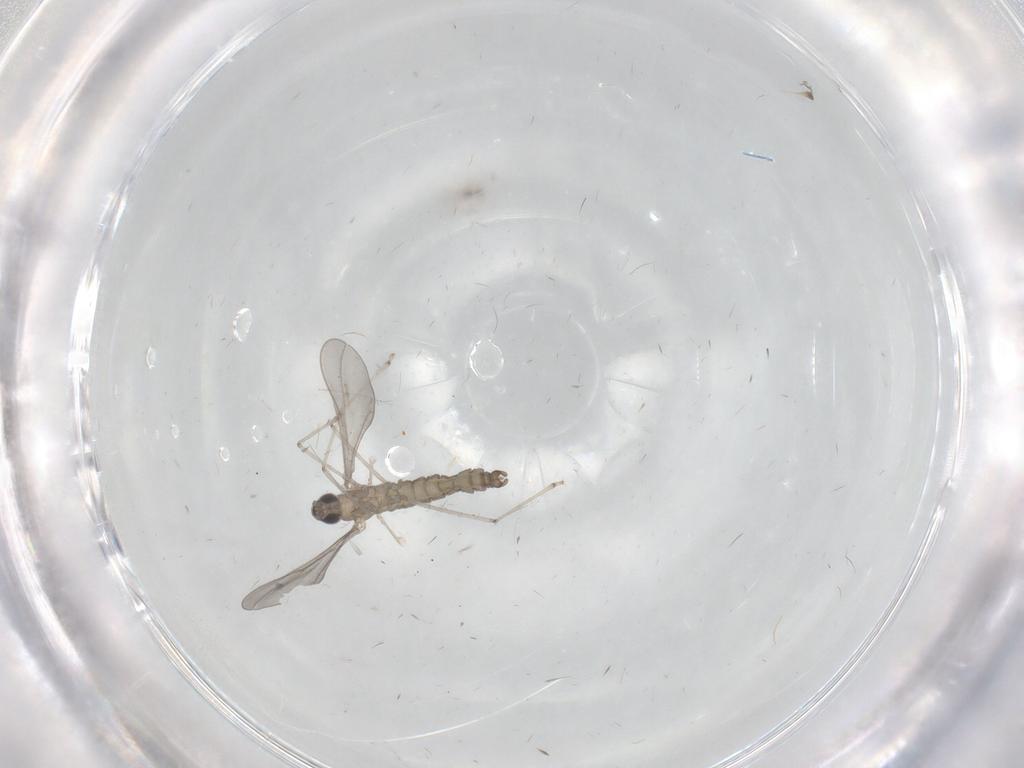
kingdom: Animalia
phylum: Arthropoda
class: Insecta
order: Diptera
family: Cecidomyiidae
